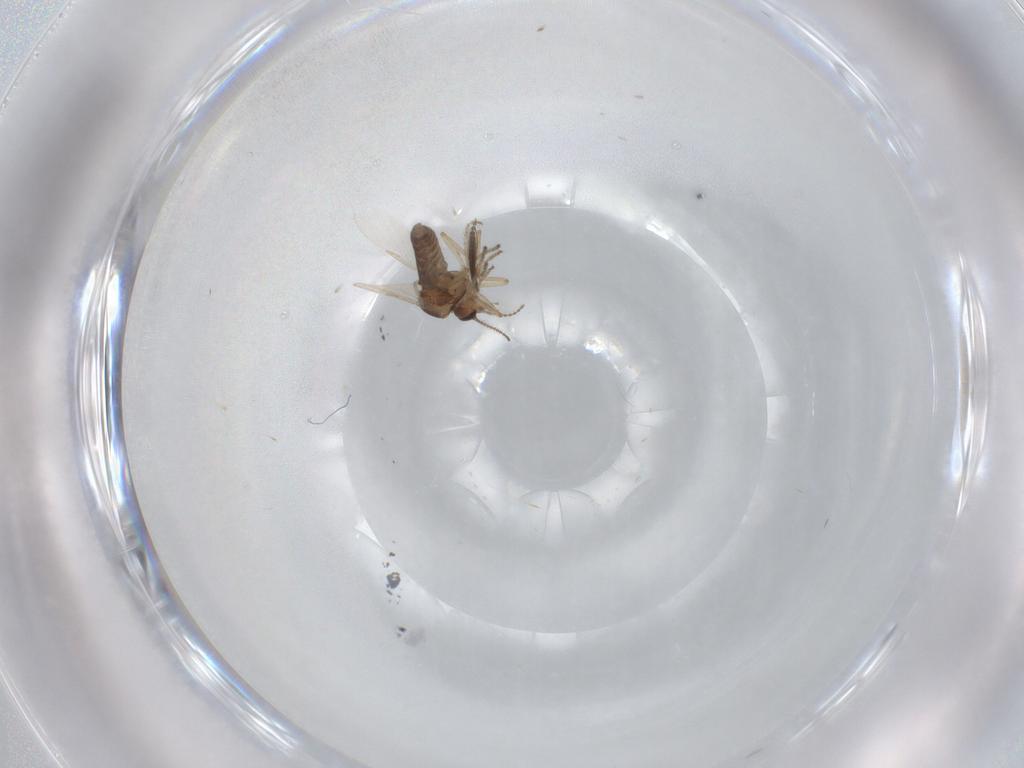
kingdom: Animalia
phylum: Arthropoda
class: Insecta
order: Diptera
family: Ceratopogonidae
